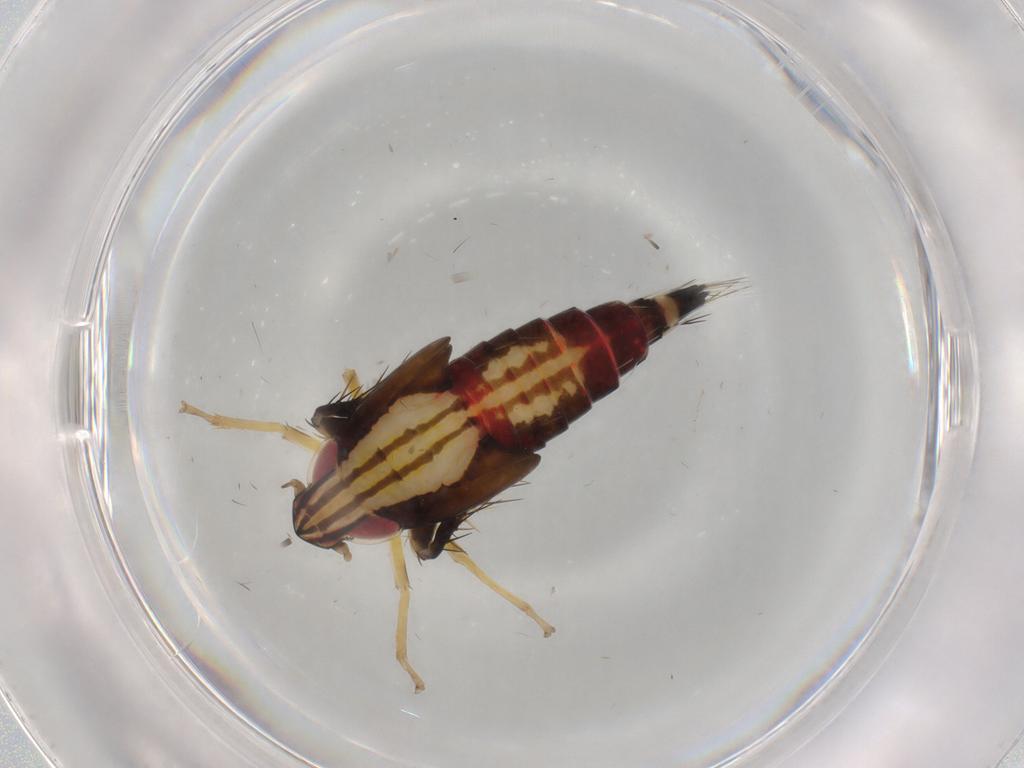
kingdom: Animalia
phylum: Arthropoda
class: Insecta
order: Hemiptera
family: Cicadellidae
